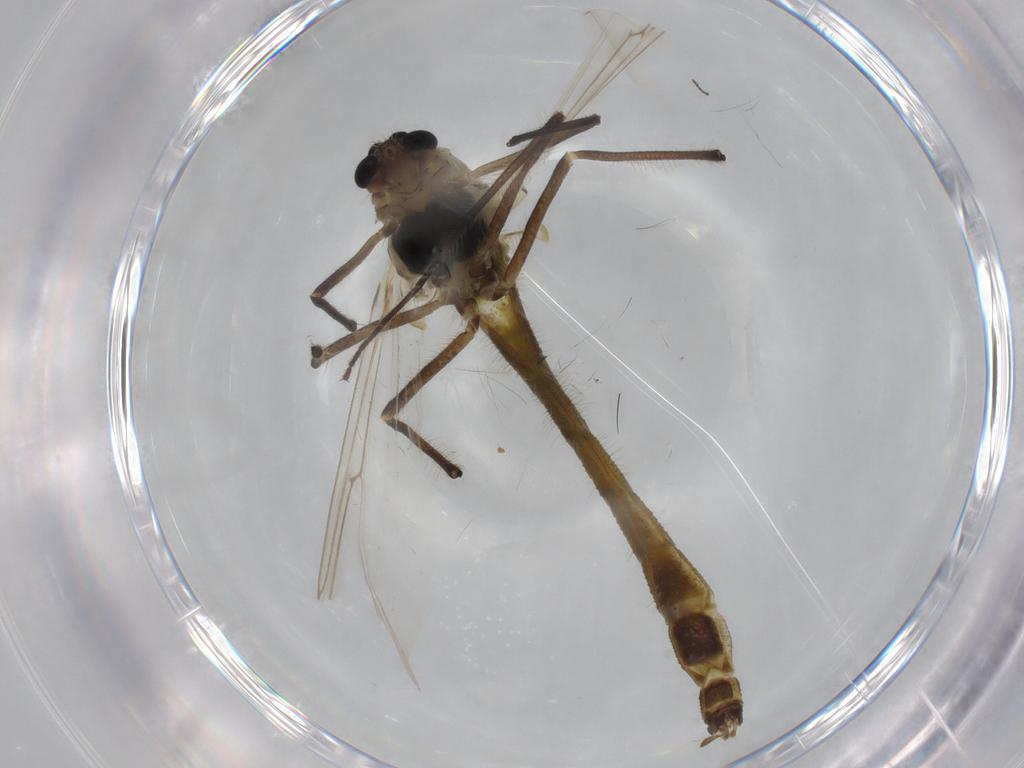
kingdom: Animalia
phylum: Arthropoda
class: Insecta
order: Diptera
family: Chironomidae
